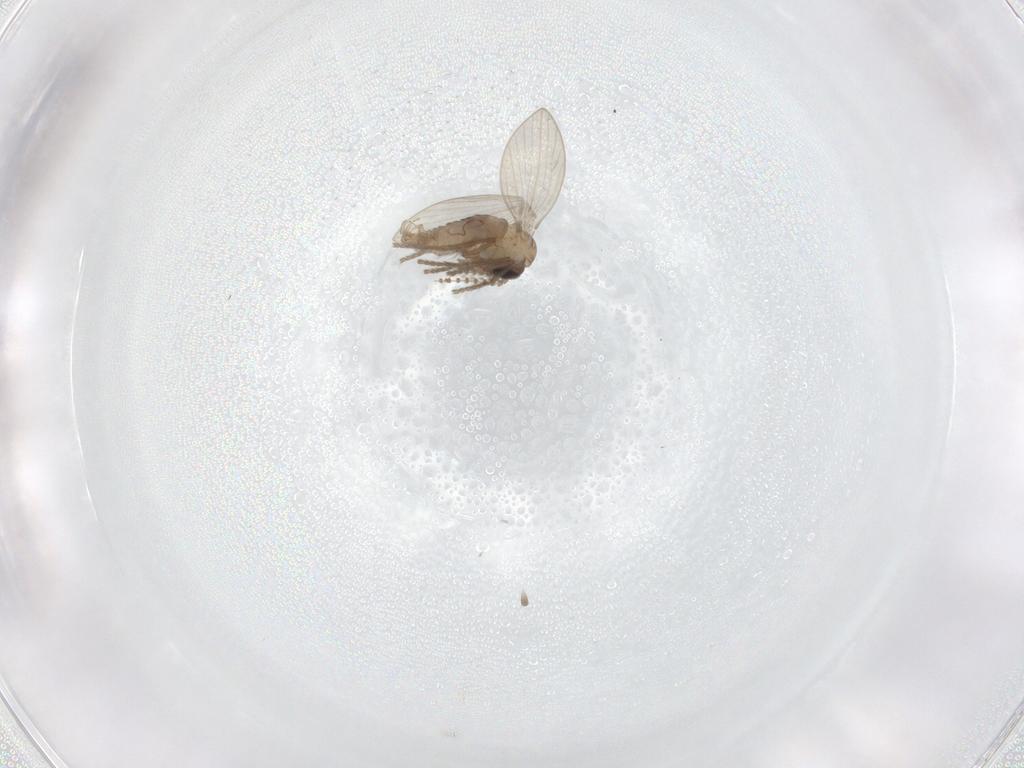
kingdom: Animalia
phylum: Arthropoda
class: Insecta
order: Diptera
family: Psychodidae
